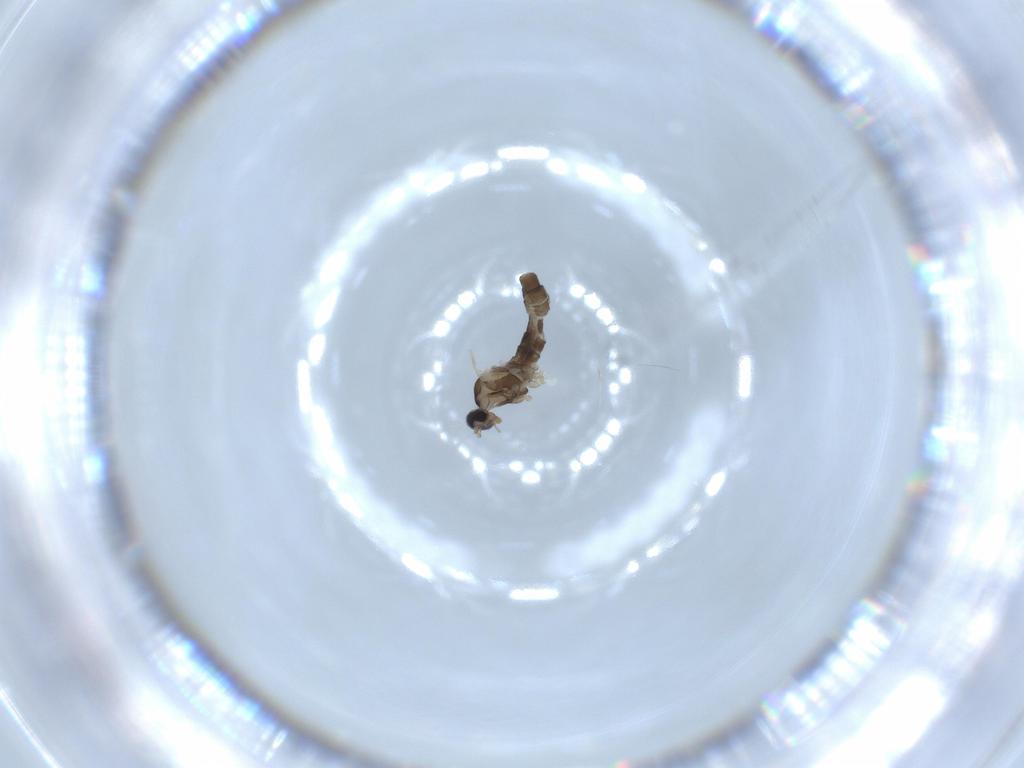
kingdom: Animalia
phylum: Arthropoda
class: Insecta
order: Diptera
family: Cecidomyiidae
